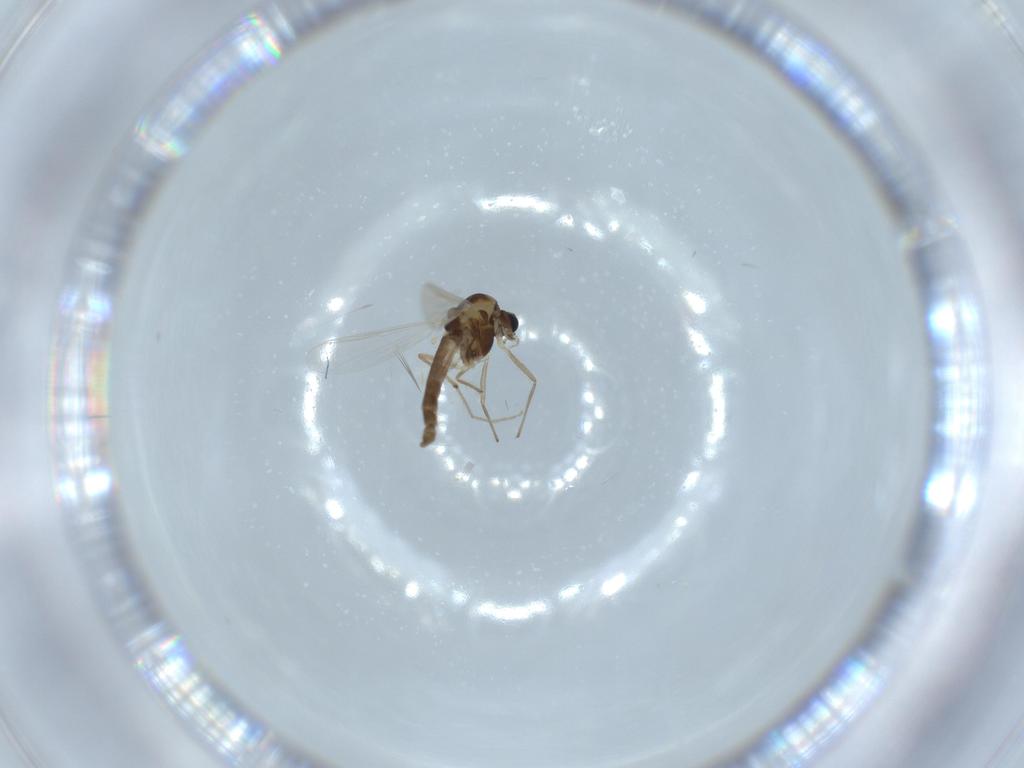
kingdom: Animalia
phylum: Arthropoda
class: Insecta
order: Diptera
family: Chironomidae
